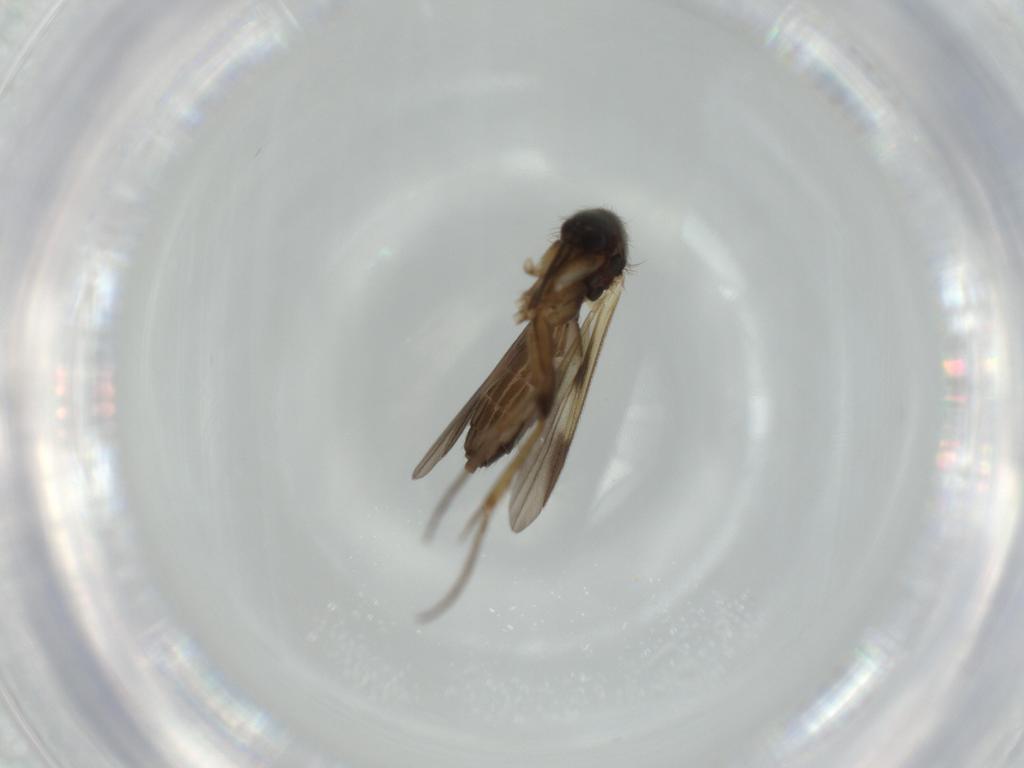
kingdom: Animalia
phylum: Arthropoda
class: Insecta
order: Diptera
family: Mycetophilidae
